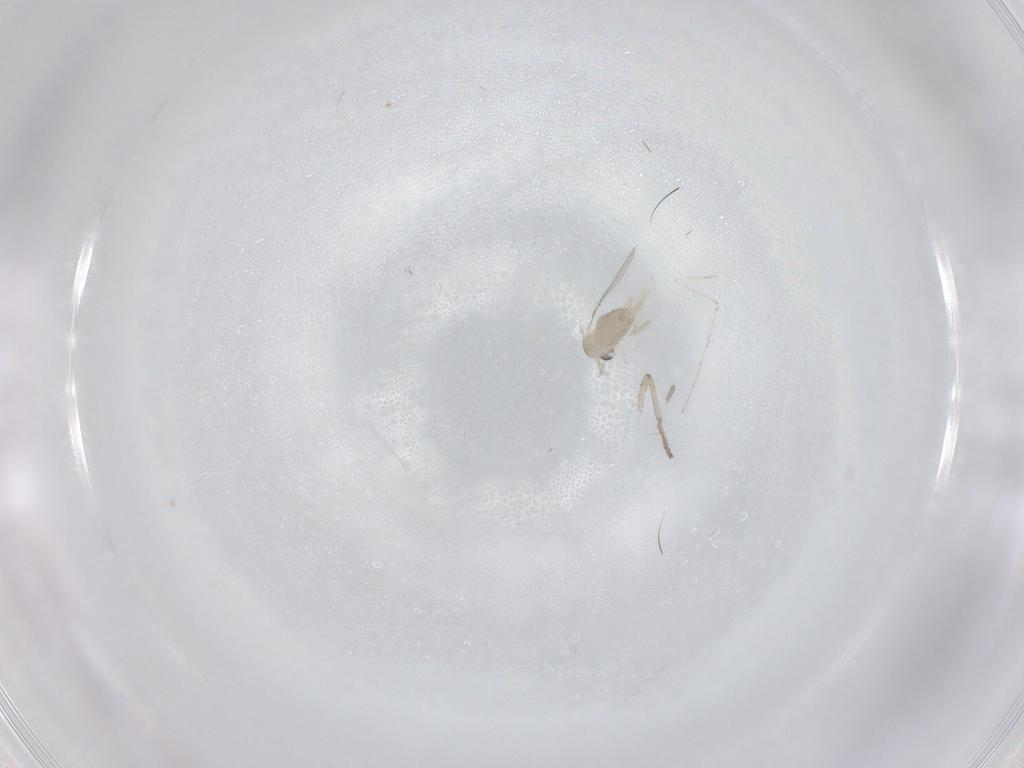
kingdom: Animalia
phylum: Arthropoda
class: Insecta
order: Diptera
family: Cecidomyiidae
